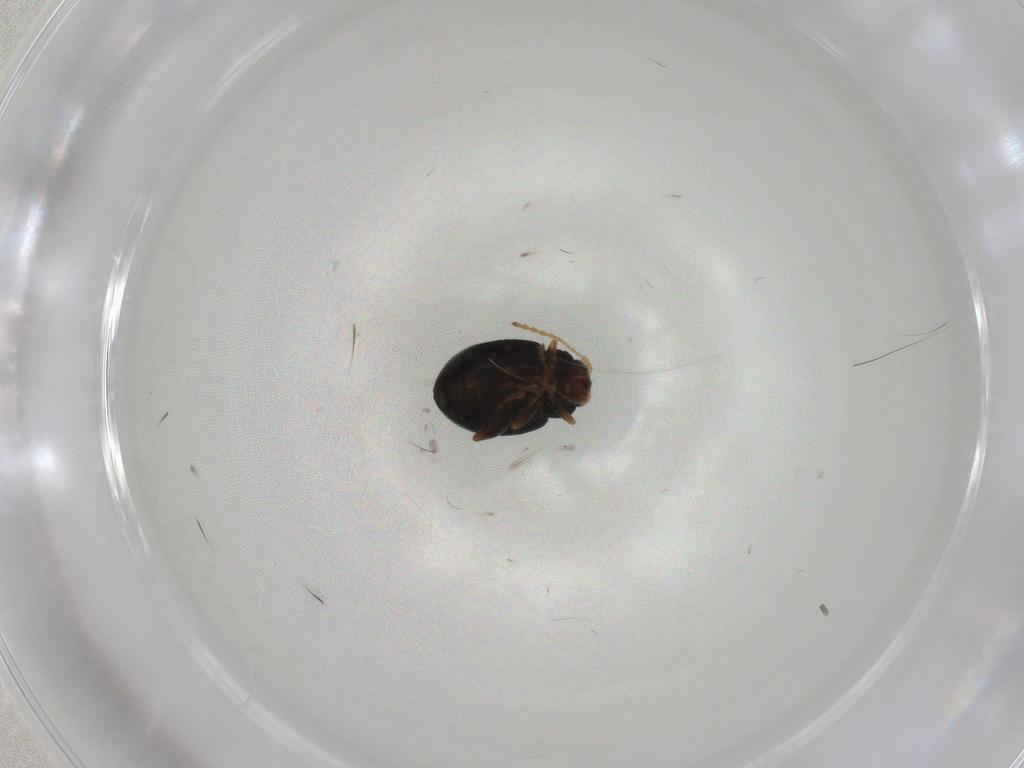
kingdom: Animalia
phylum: Arthropoda
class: Insecta
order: Coleoptera
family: Chrysomelidae
